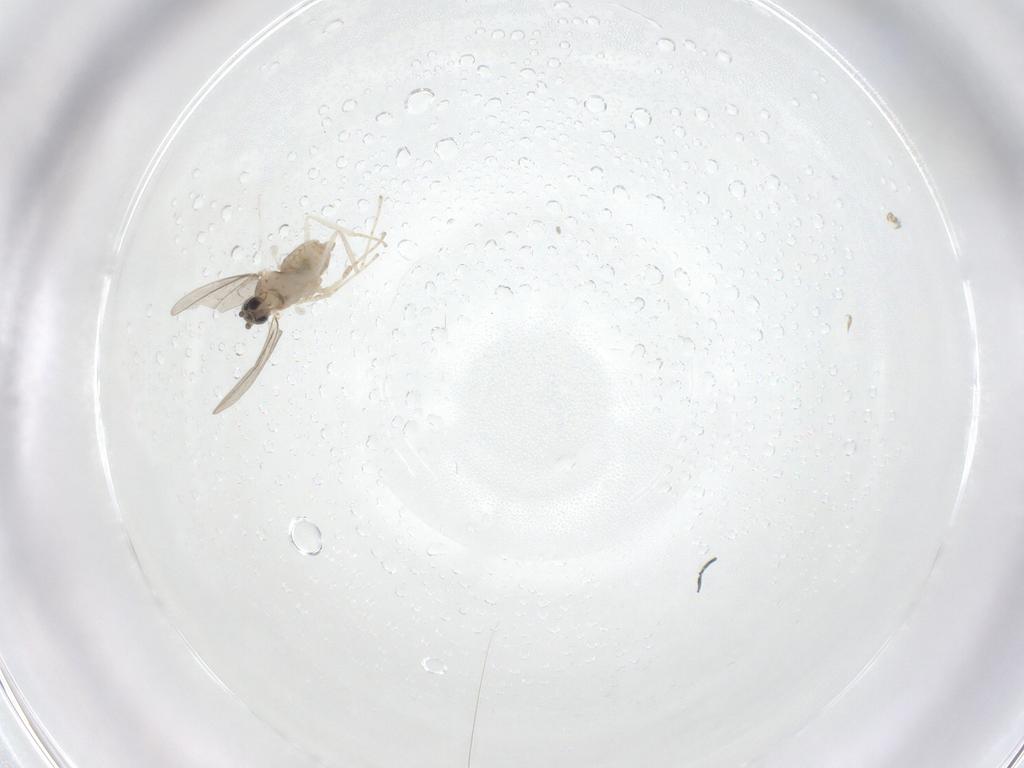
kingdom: Animalia
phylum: Arthropoda
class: Insecta
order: Diptera
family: Cecidomyiidae
